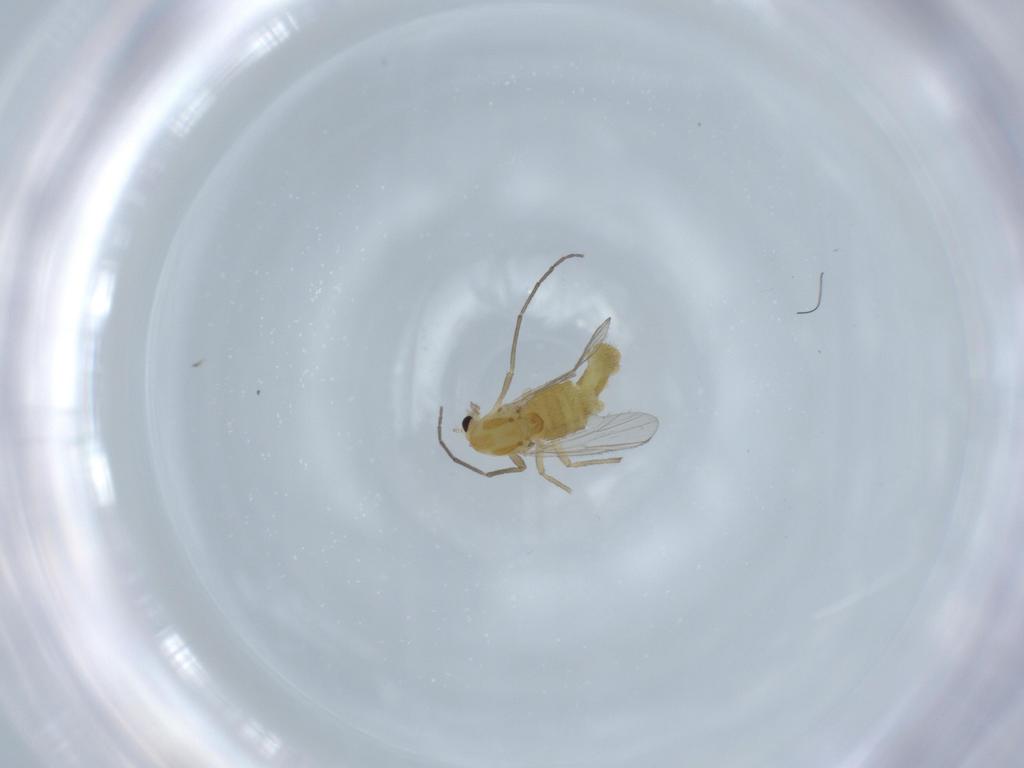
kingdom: Animalia
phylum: Arthropoda
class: Insecta
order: Diptera
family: Chironomidae
